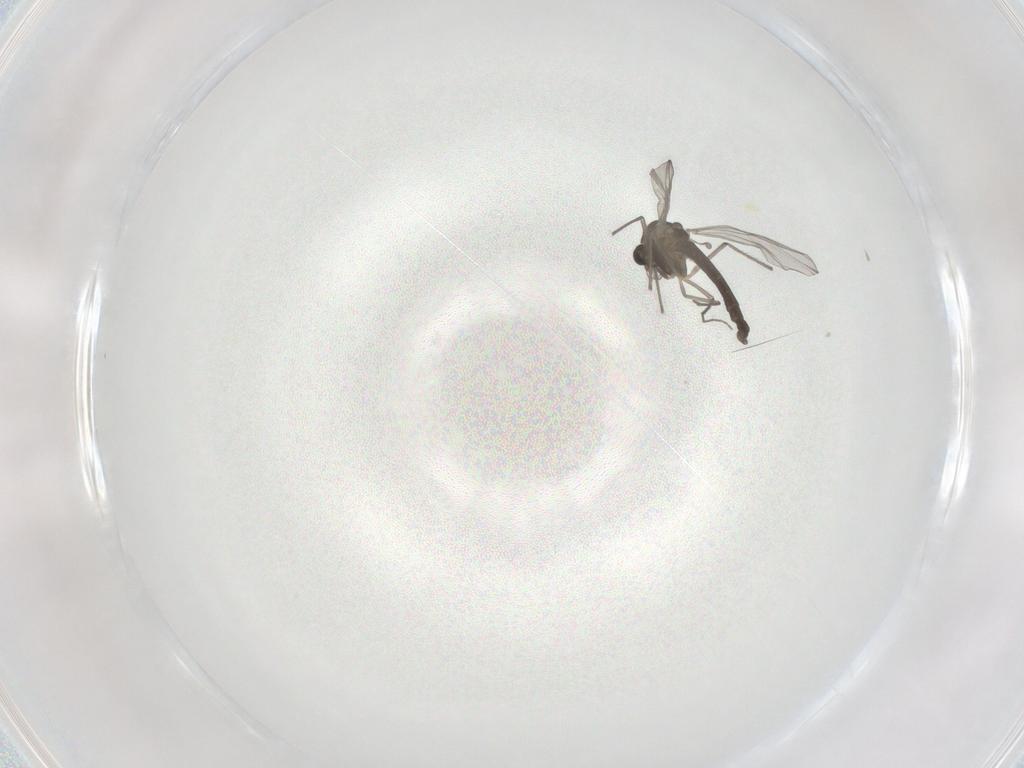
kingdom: Animalia
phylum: Arthropoda
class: Insecta
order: Diptera
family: Chironomidae
